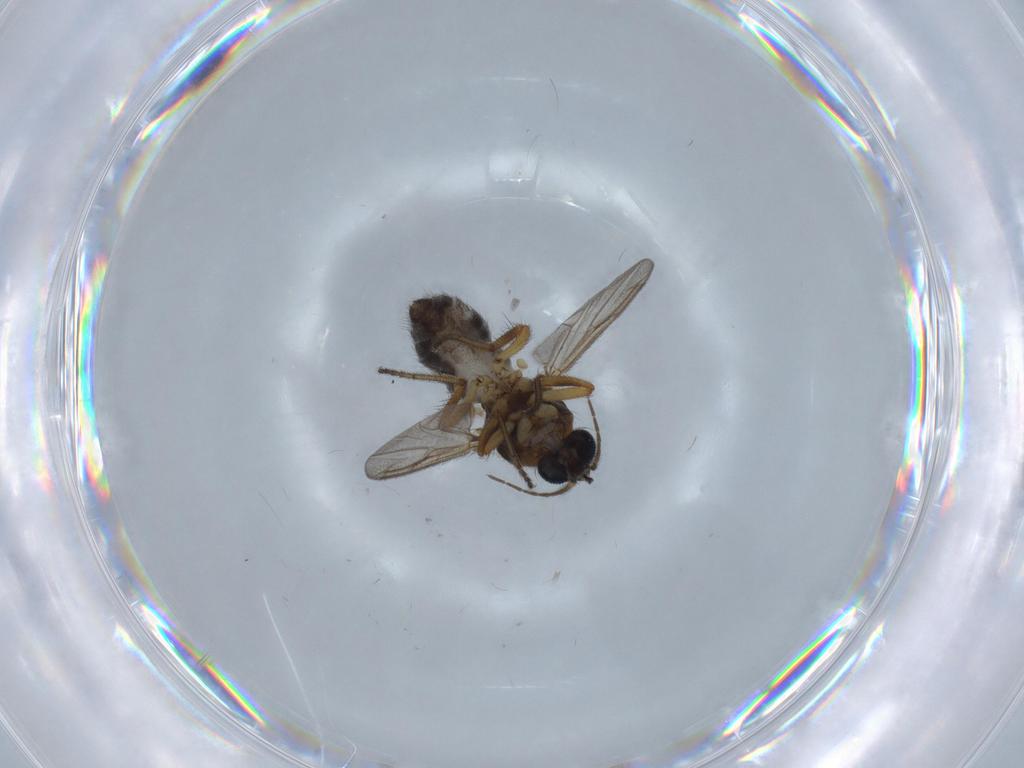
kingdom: Animalia
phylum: Arthropoda
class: Insecta
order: Diptera
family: Ceratopogonidae
